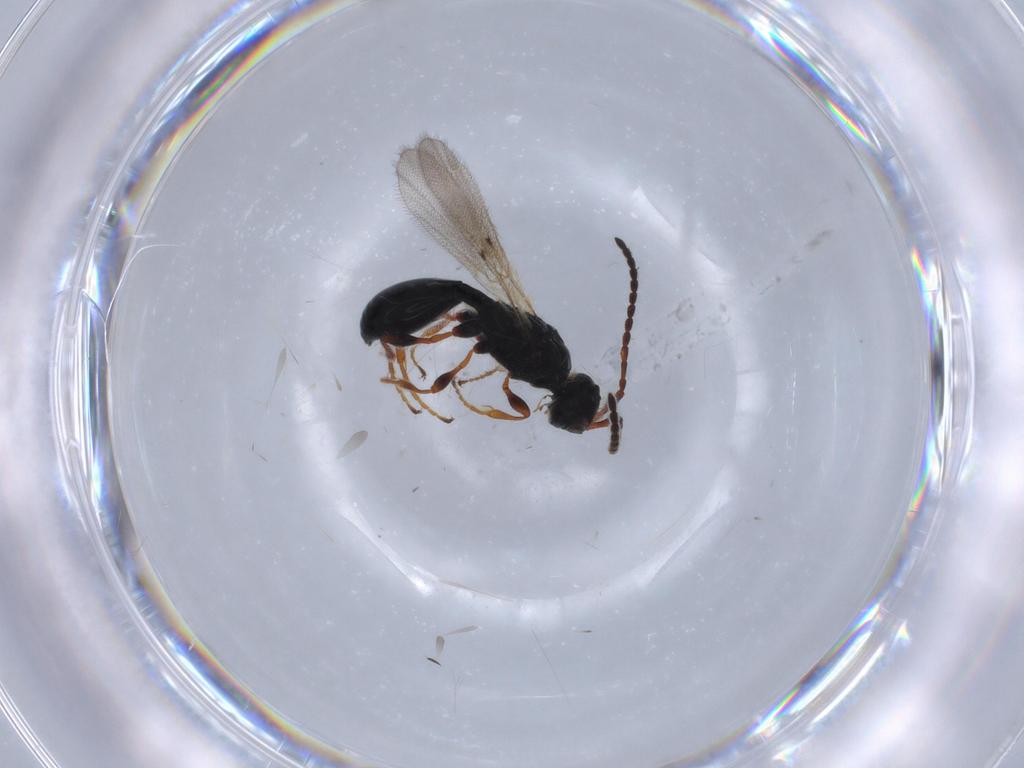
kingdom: Animalia
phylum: Arthropoda
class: Insecta
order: Hymenoptera
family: Diapriidae
